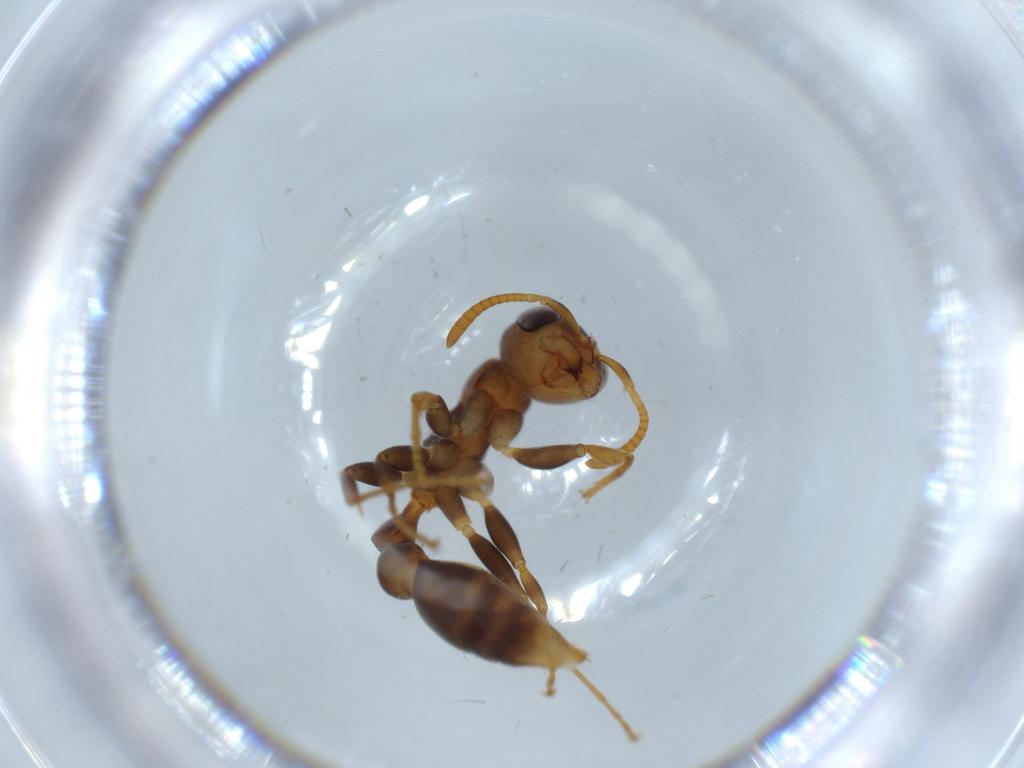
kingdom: Animalia
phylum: Arthropoda
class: Insecta
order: Hymenoptera
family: Formicidae
